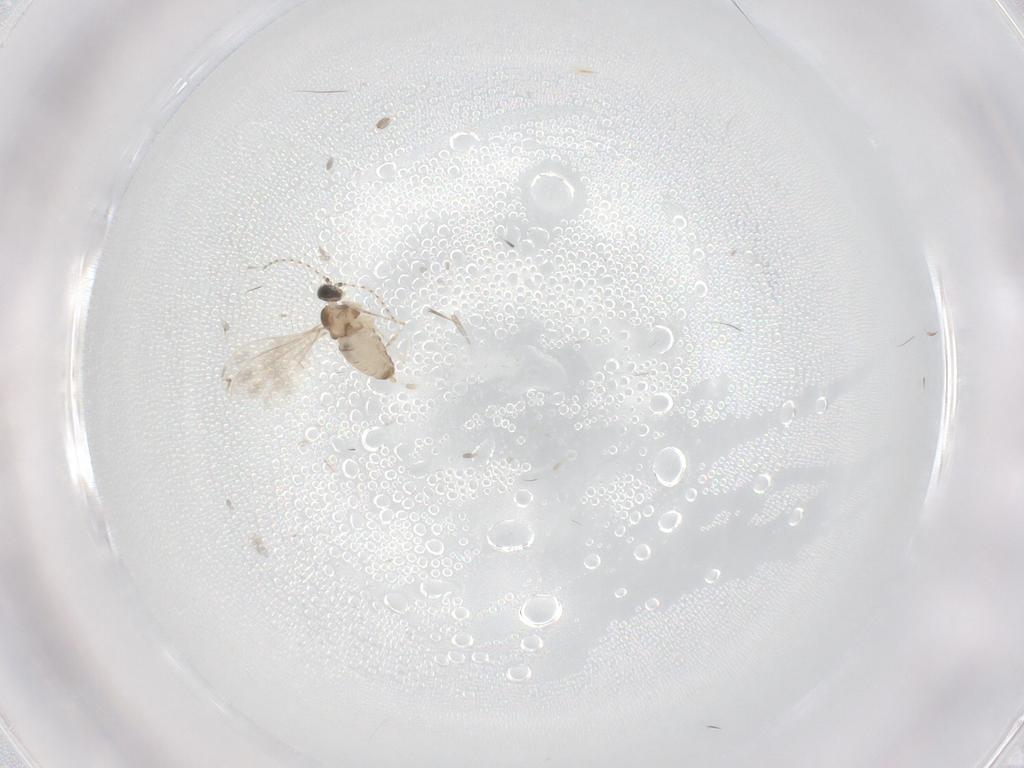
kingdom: Animalia
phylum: Arthropoda
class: Insecta
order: Diptera
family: Cecidomyiidae
